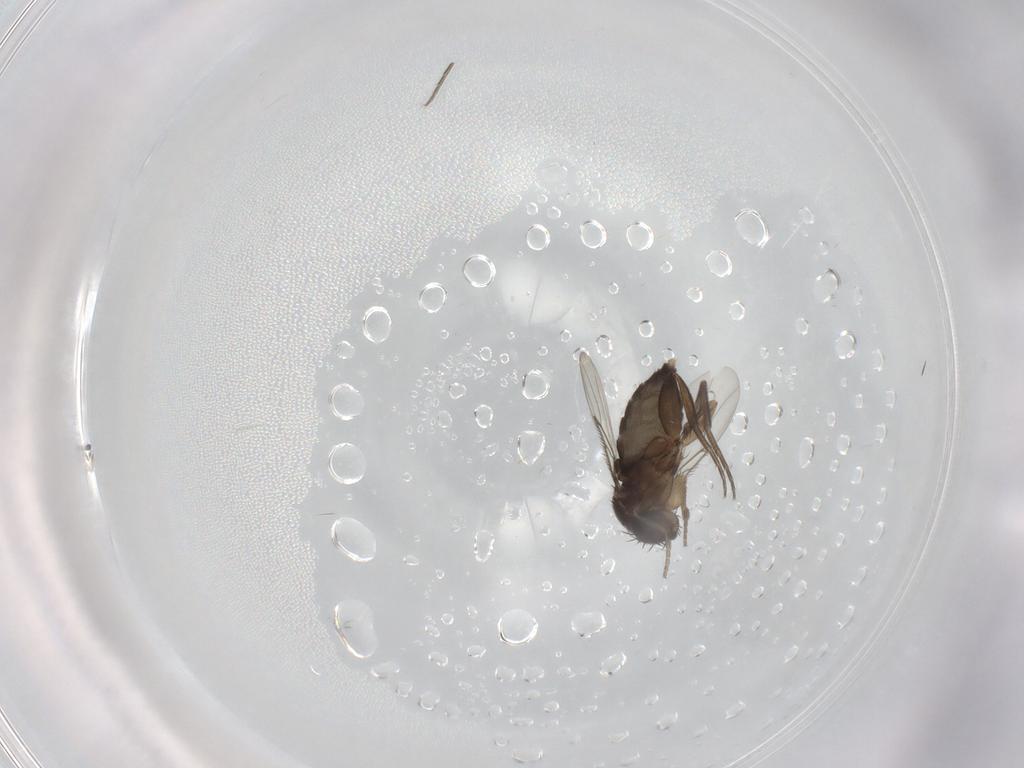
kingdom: Animalia
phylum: Arthropoda
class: Insecta
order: Diptera
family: Phoridae
